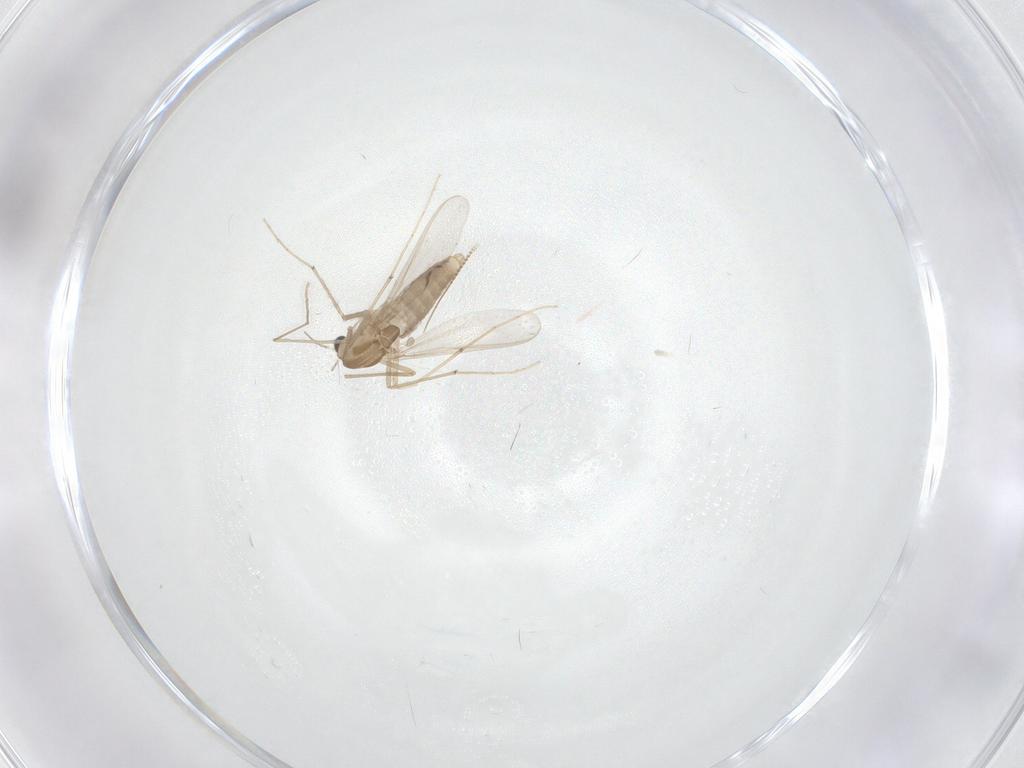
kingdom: Animalia
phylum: Arthropoda
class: Insecta
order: Diptera
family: Chironomidae
